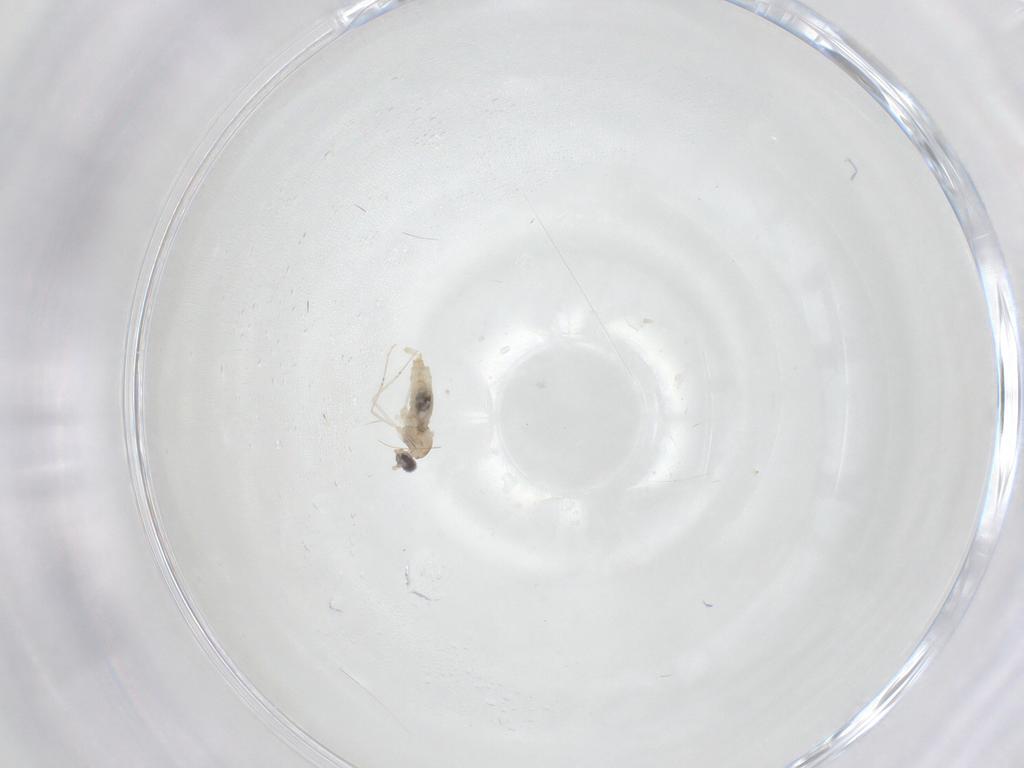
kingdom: Animalia
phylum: Arthropoda
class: Insecta
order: Diptera
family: Cecidomyiidae
